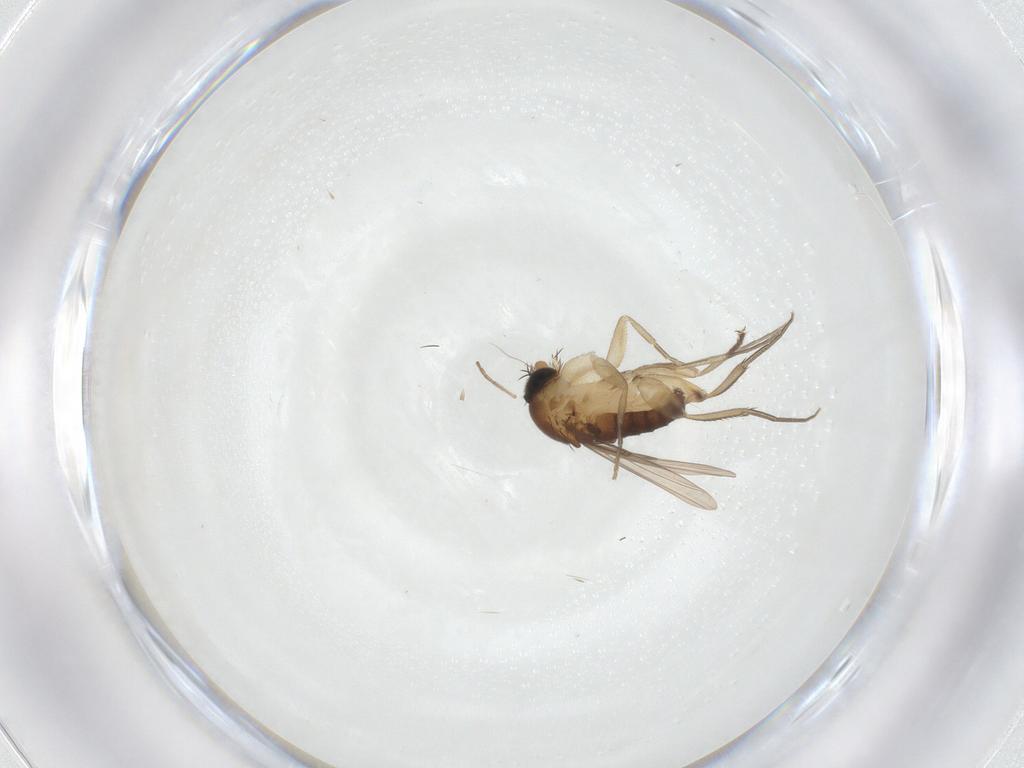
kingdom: Animalia
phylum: Arthropoda
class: Insecta
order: Diptera
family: Phoridae
